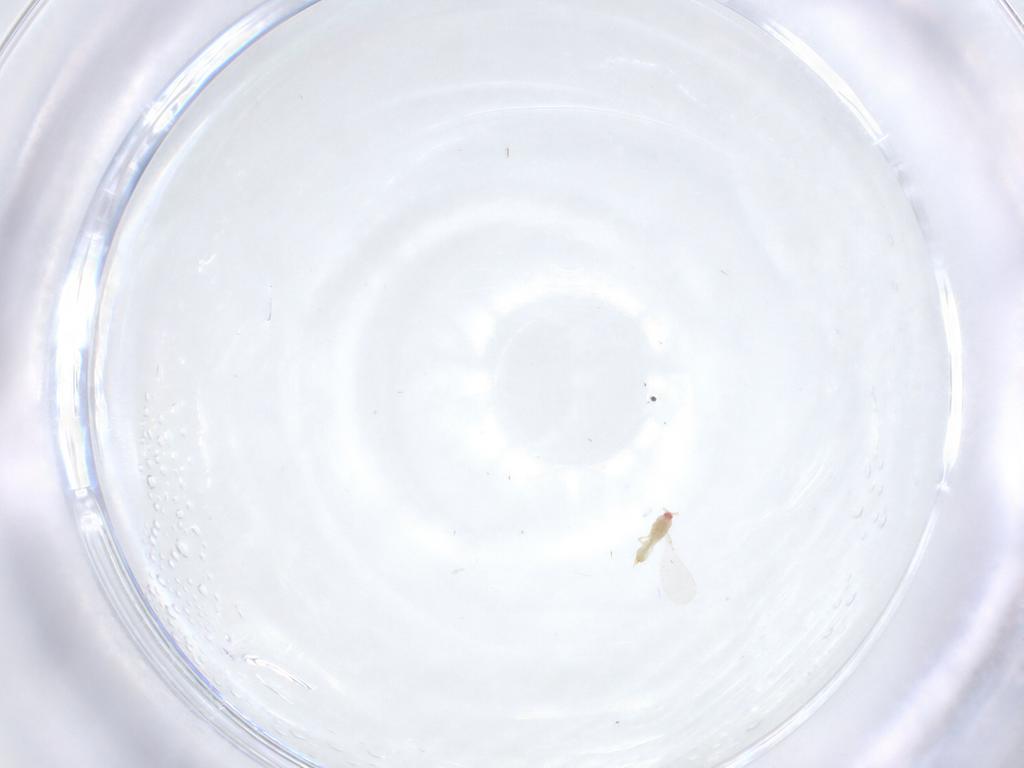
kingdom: Animalia
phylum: Arthropoda
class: Insecta
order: Diptera
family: Cecidomyiidae
